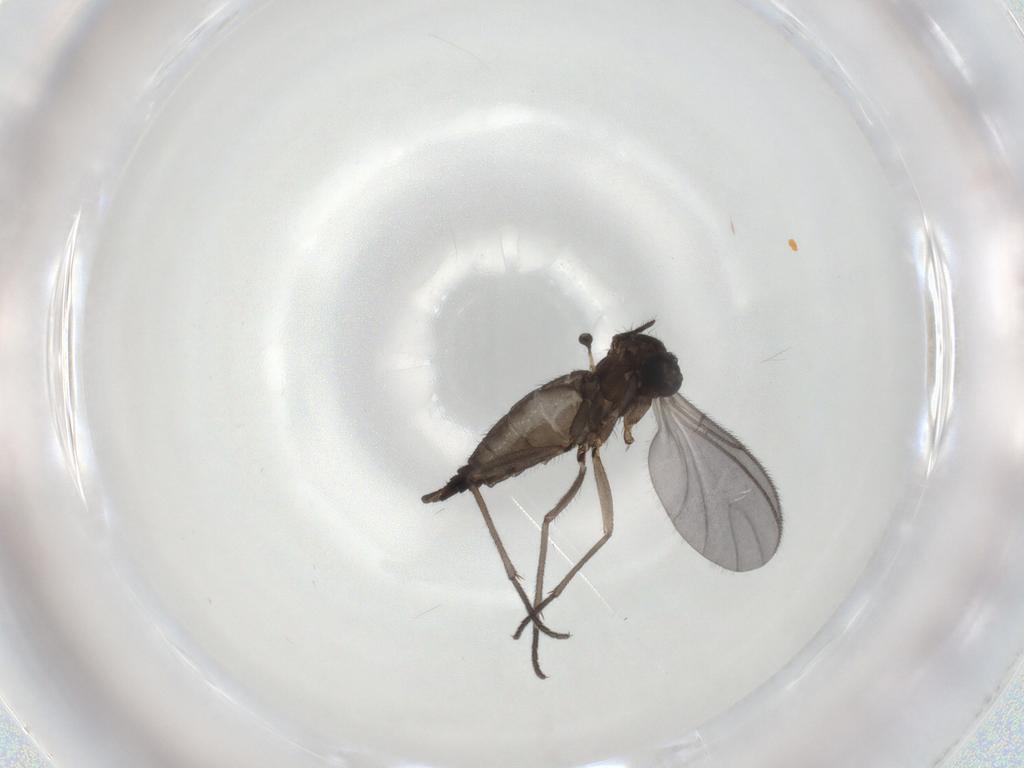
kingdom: Animalia
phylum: Arthropoda
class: Insecta
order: Diptera
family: Sciaridae
